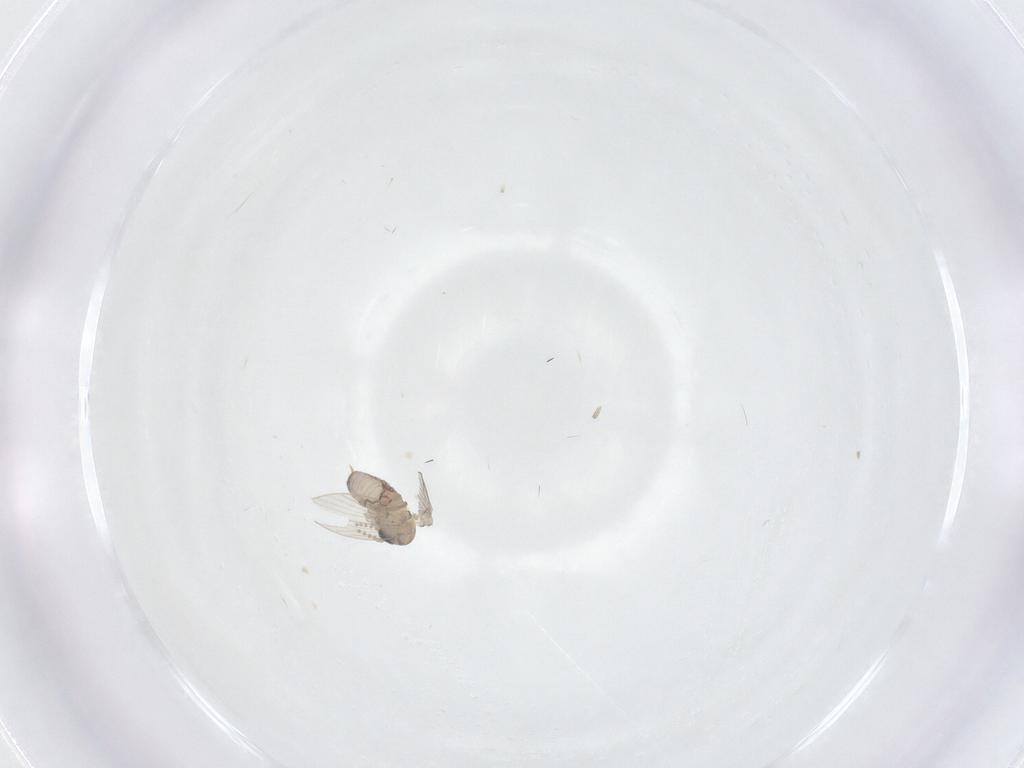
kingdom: Animalia
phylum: Arthropoda
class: Insecta
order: Diptera
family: Psychodidae
